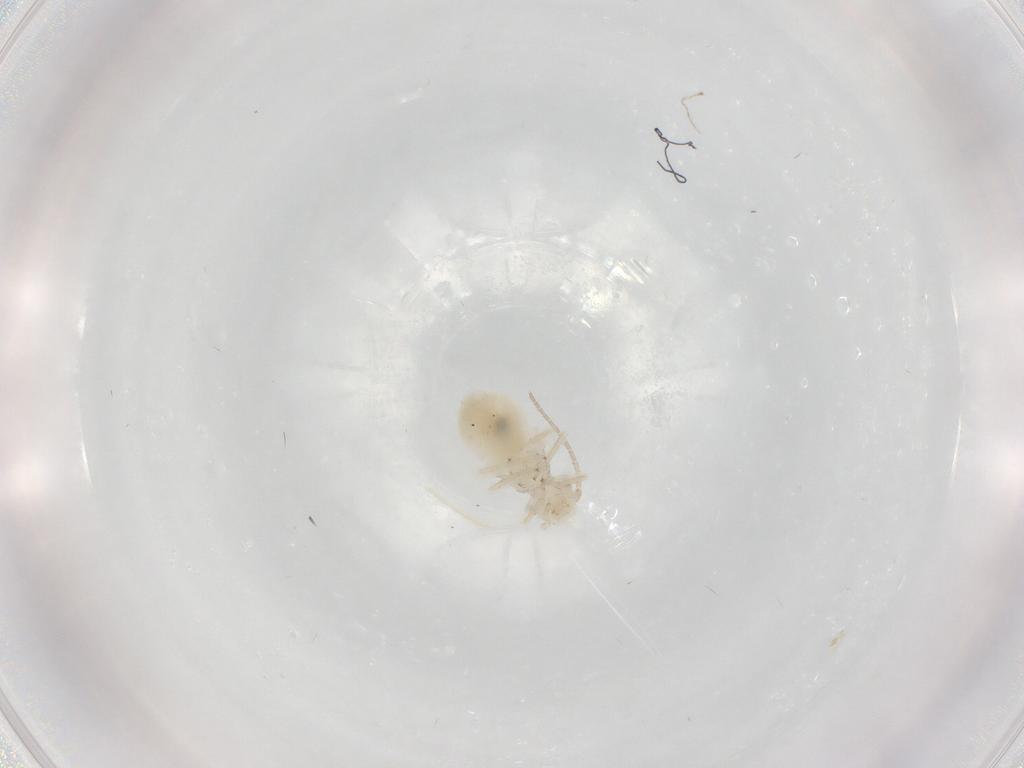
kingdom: Animalia
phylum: Arthropoda
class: Insecta
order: Psocodea
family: Caeciliusidae
